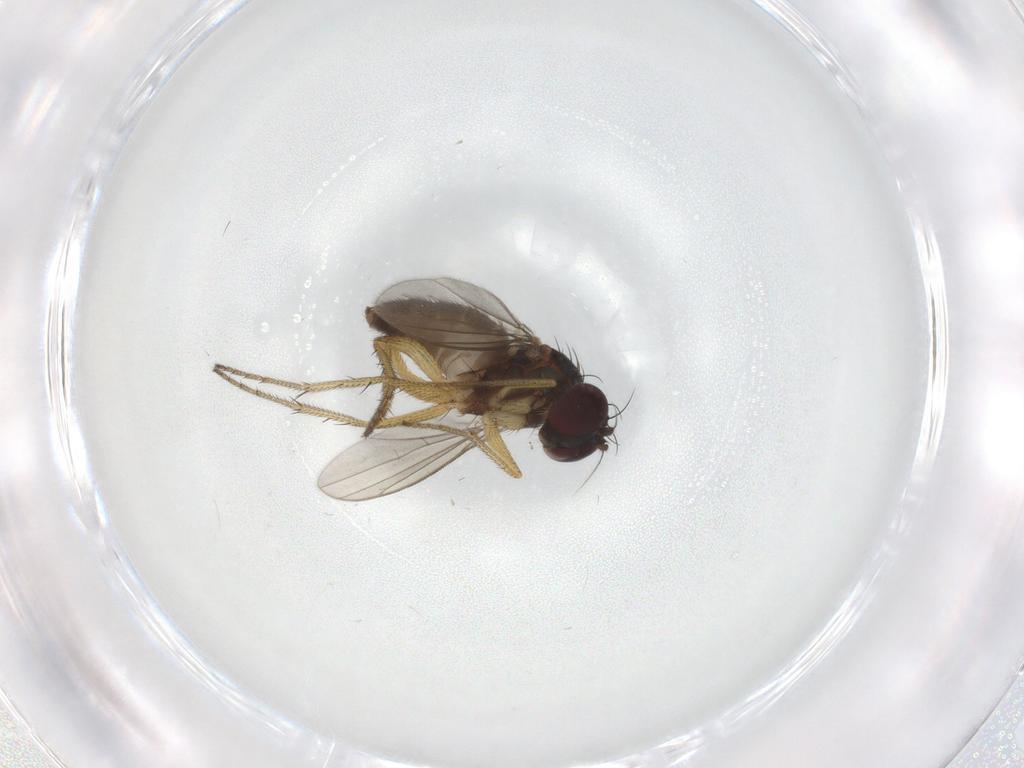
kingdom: Animalia
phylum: Arthropoda
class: Insecta
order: Diptera
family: Dolichopodidae
